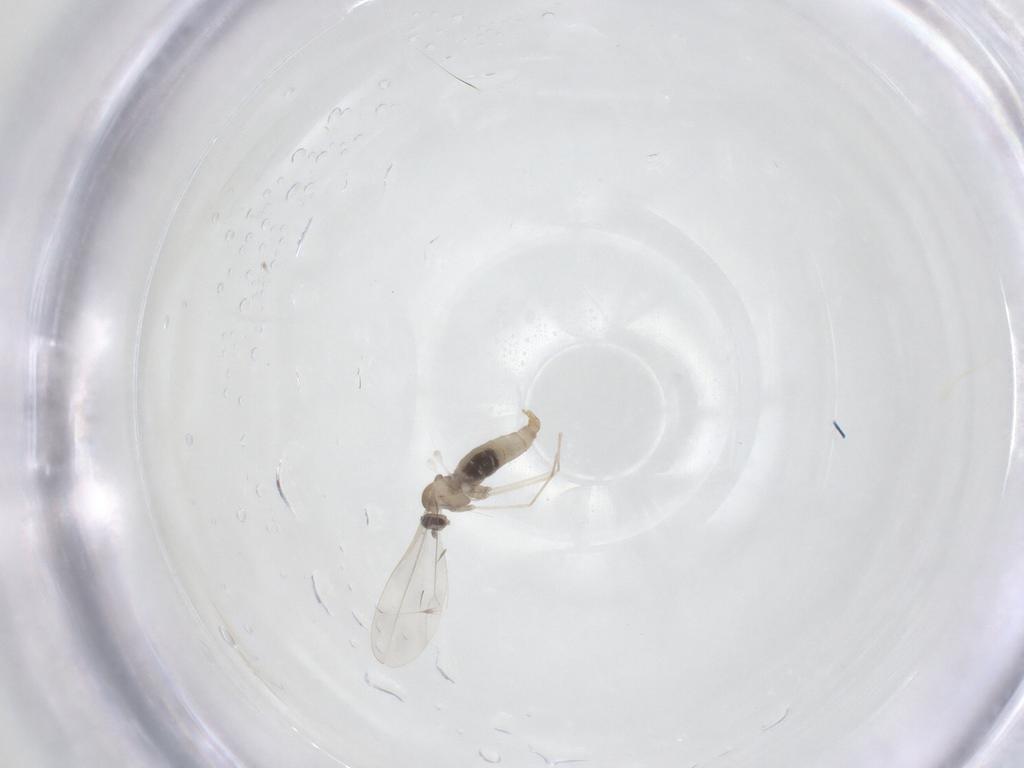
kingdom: Animalia
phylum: Arthropoda
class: Insecta
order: Diptera
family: Cecidomyiidae
